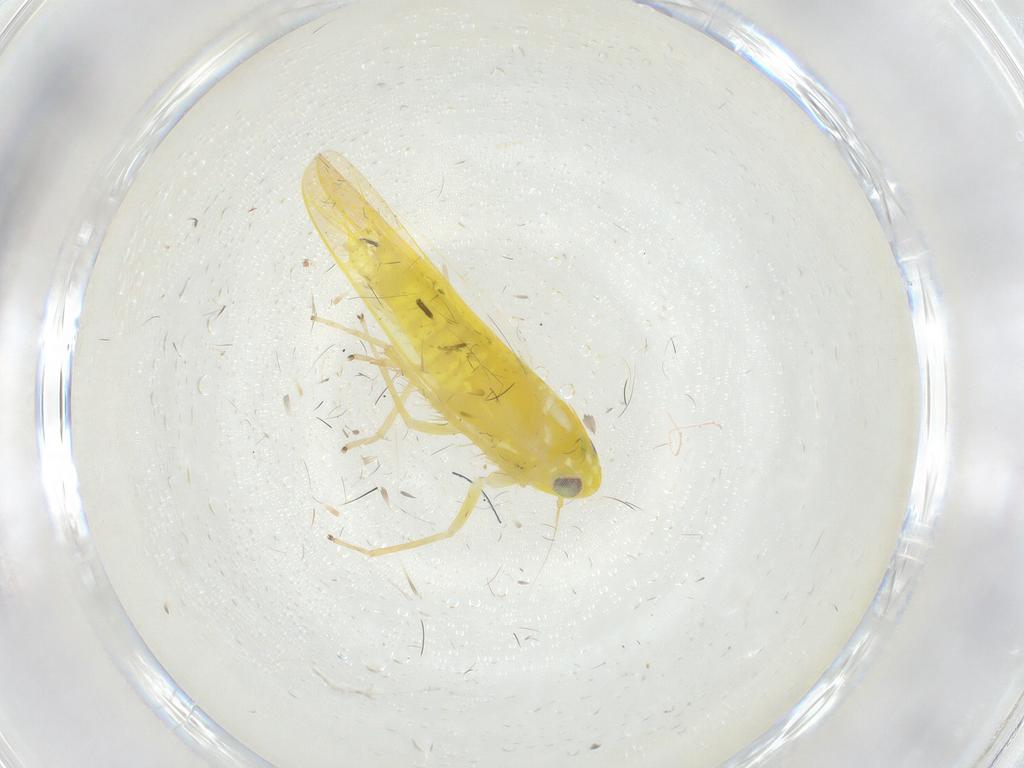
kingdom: Animalia
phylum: Arthropoda
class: Insecta
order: Hemiptera
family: Cicadellidae
